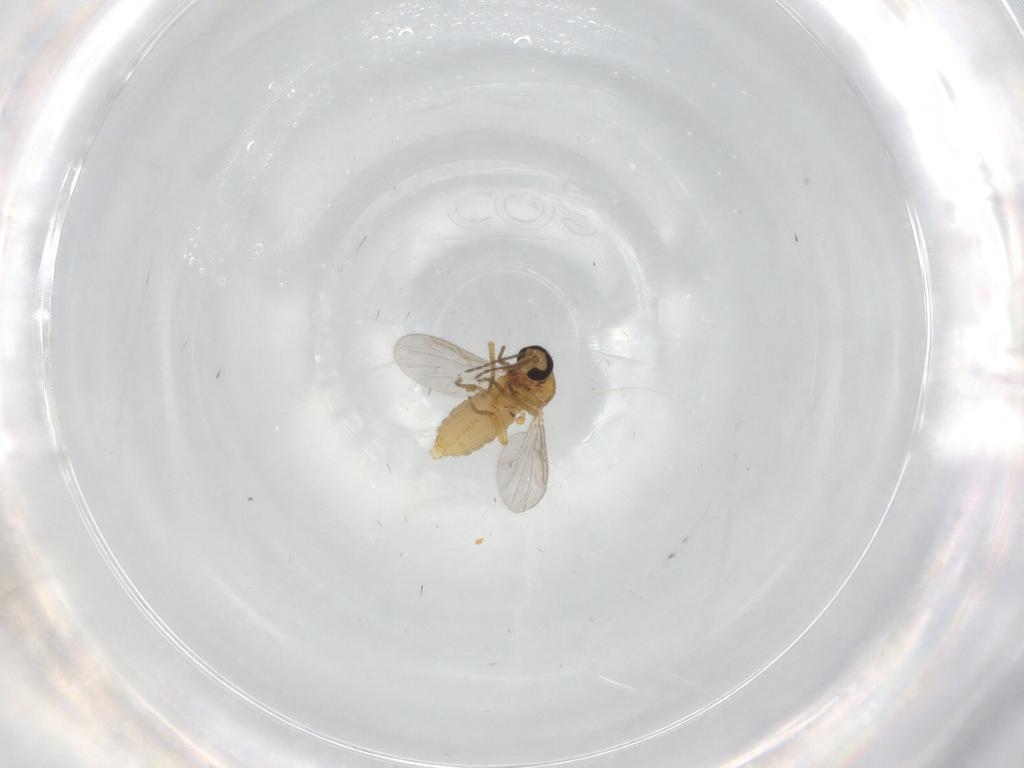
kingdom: Animalia
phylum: Arthropoda
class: Insecta
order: Diptera
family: Ceratopogonidae
